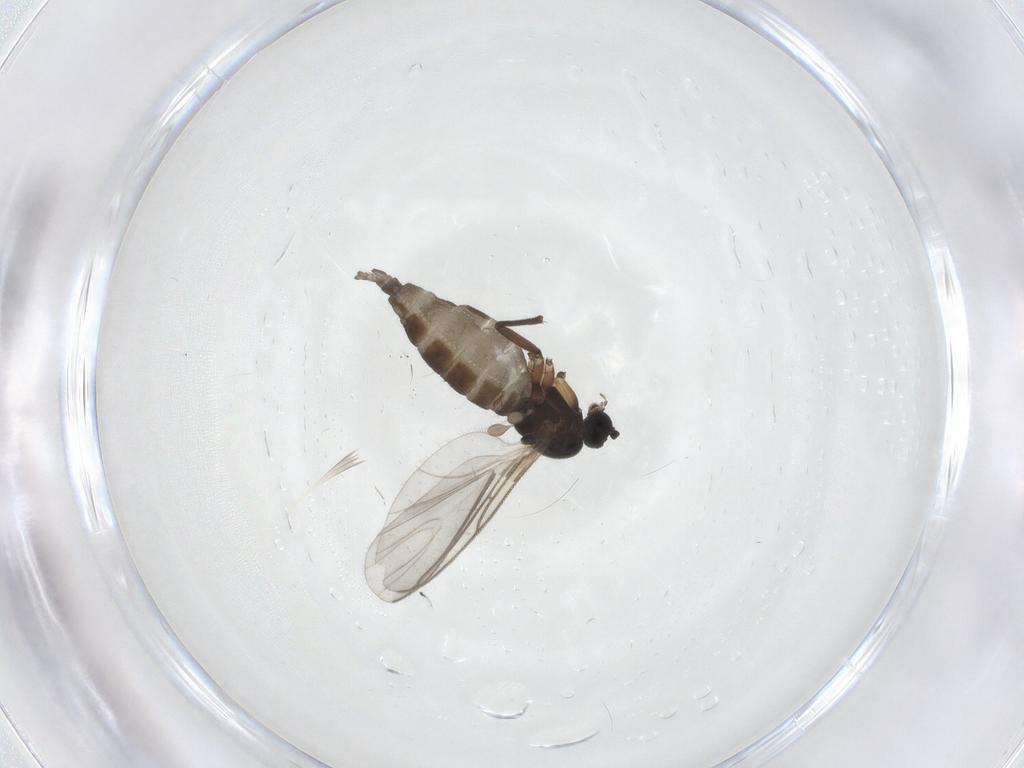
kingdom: Animalia
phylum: Arthropoda
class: Insecta
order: Diptera
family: Sciaridae
